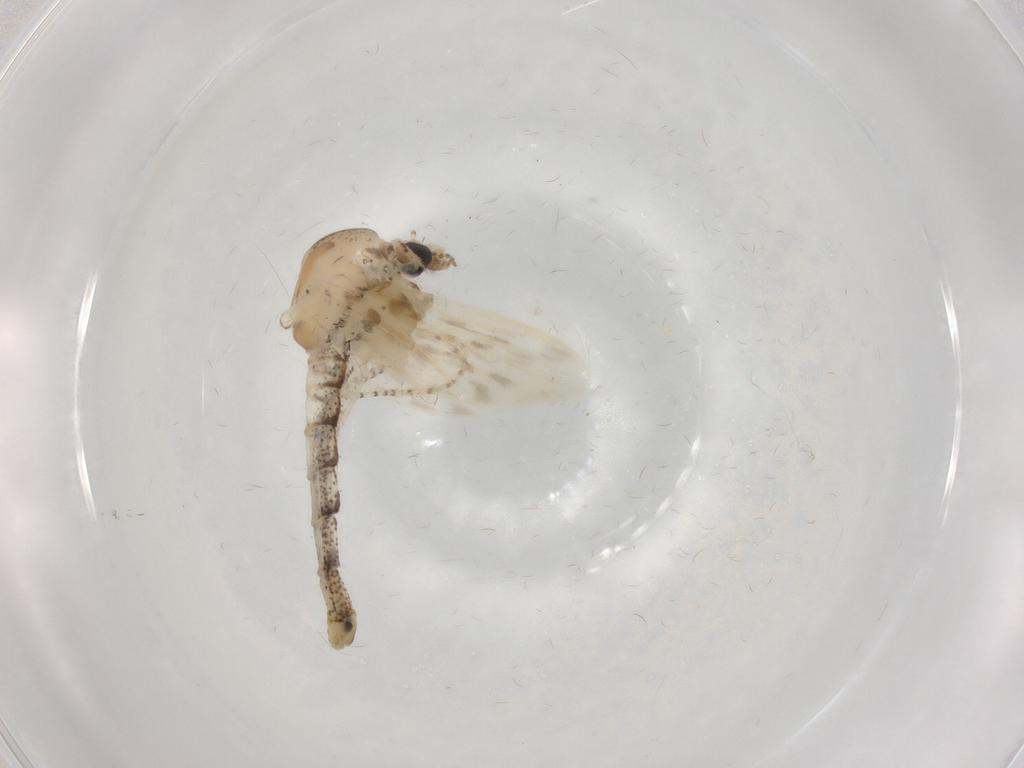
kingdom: Animalia
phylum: Arthropoda
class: Insecta
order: Diptera
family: Chaoboridae
